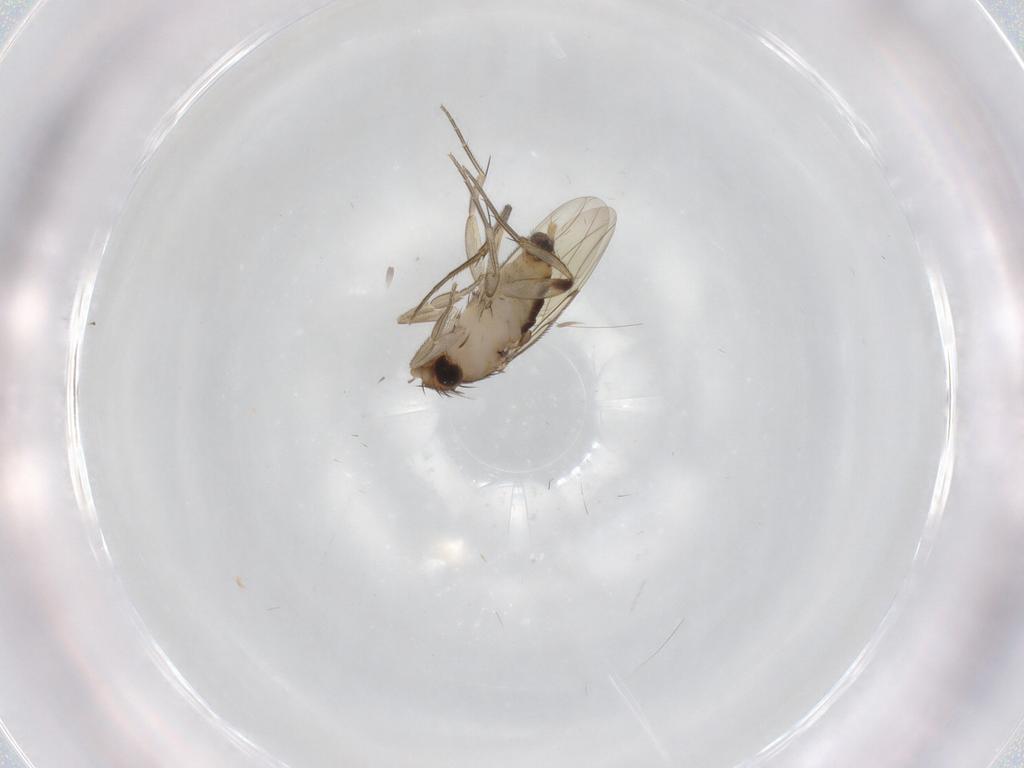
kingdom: Animalia
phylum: Arthropoda
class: Insecta
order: Diptera
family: Phoridae
